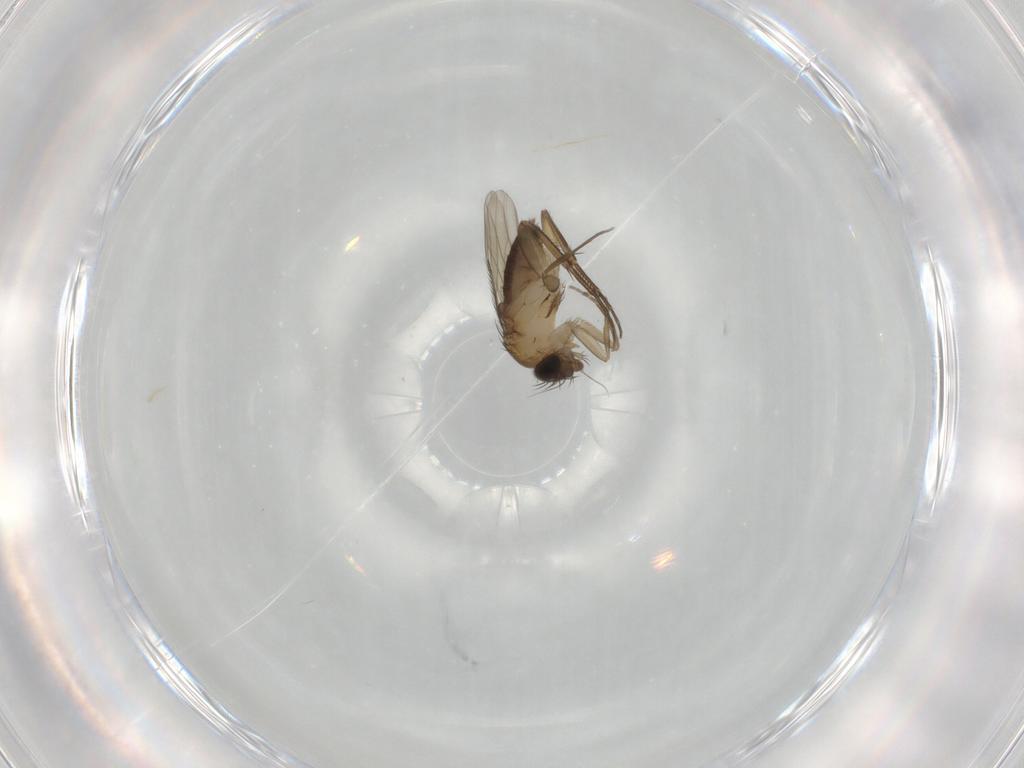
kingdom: Animalia
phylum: Arthropoda
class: Insecta
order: Diptera
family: Phoridae
